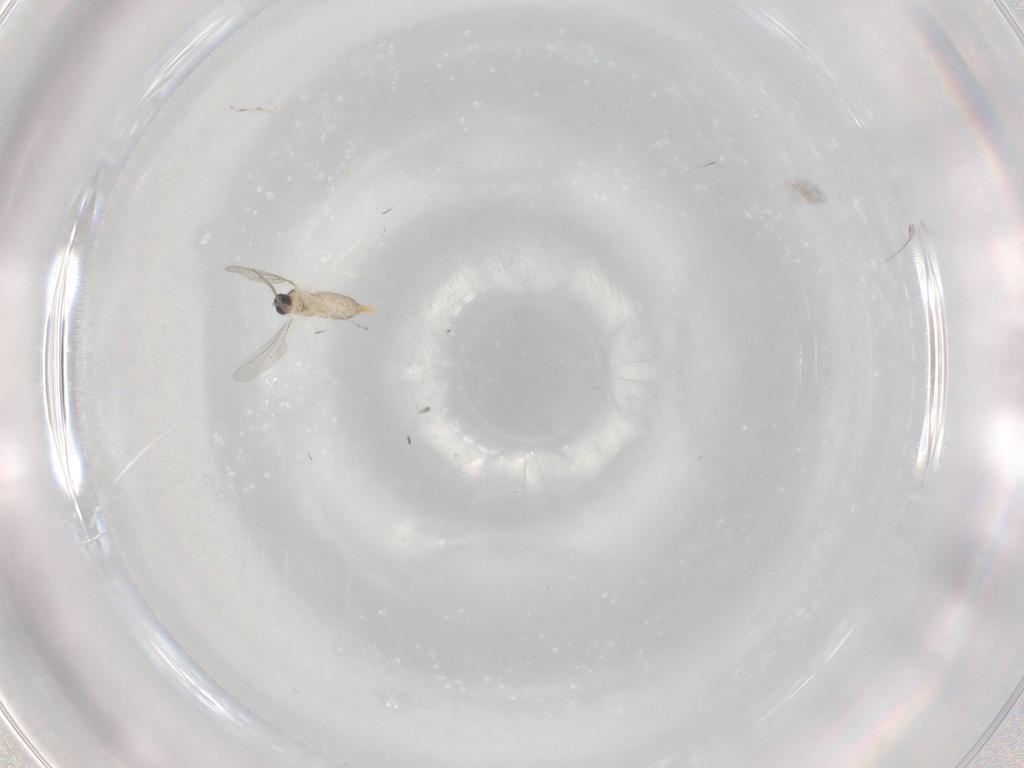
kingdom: Animalia
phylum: Arthropoda
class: Insecta
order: Diptera
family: Cecidomyiidae
